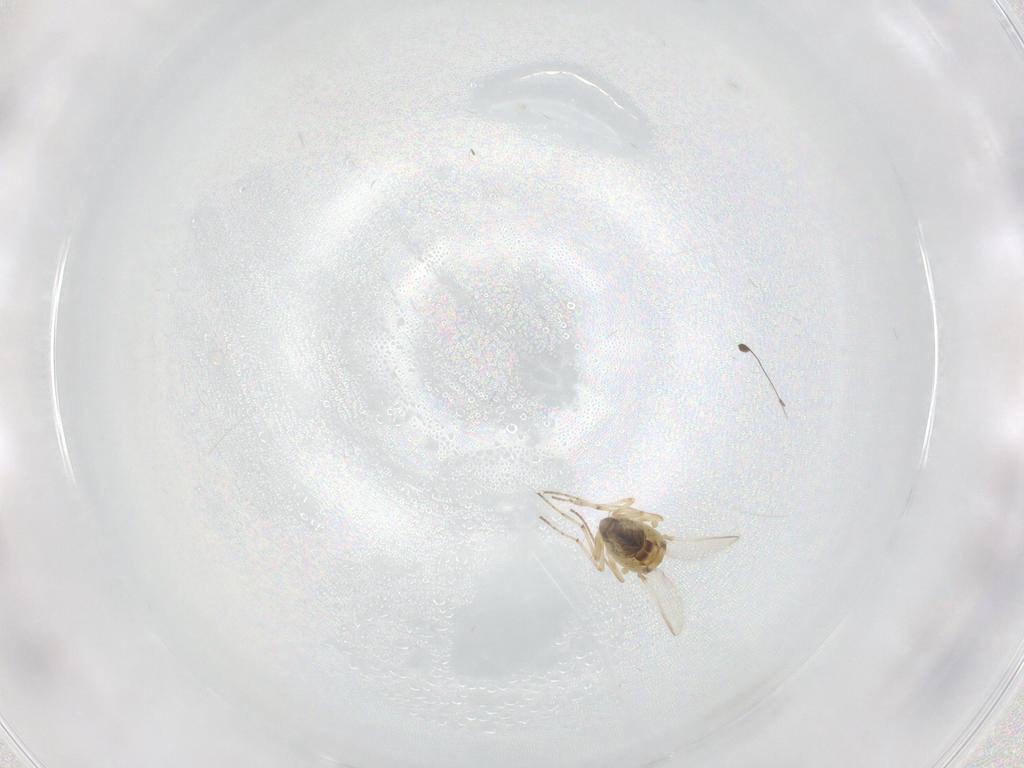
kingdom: Animalia
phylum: Arthropoda
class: Insecta
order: Diptera
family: Hybotidae
